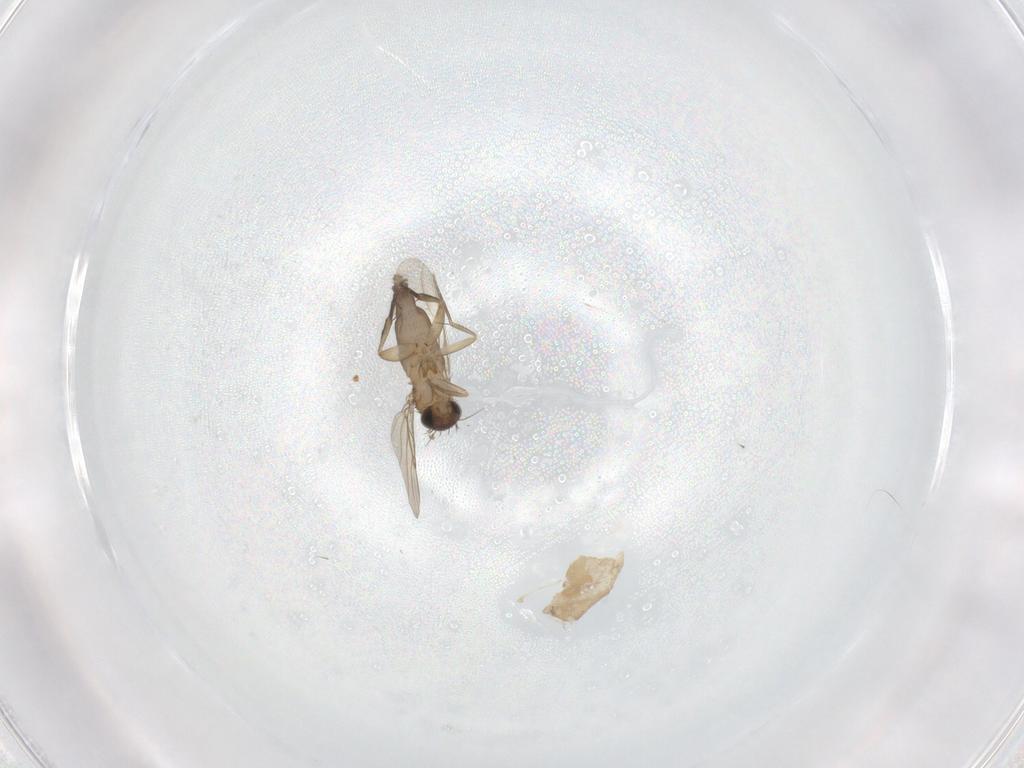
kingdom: Animalia
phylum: Arthropoda
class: Insecta
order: Diptera
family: Phoridae
